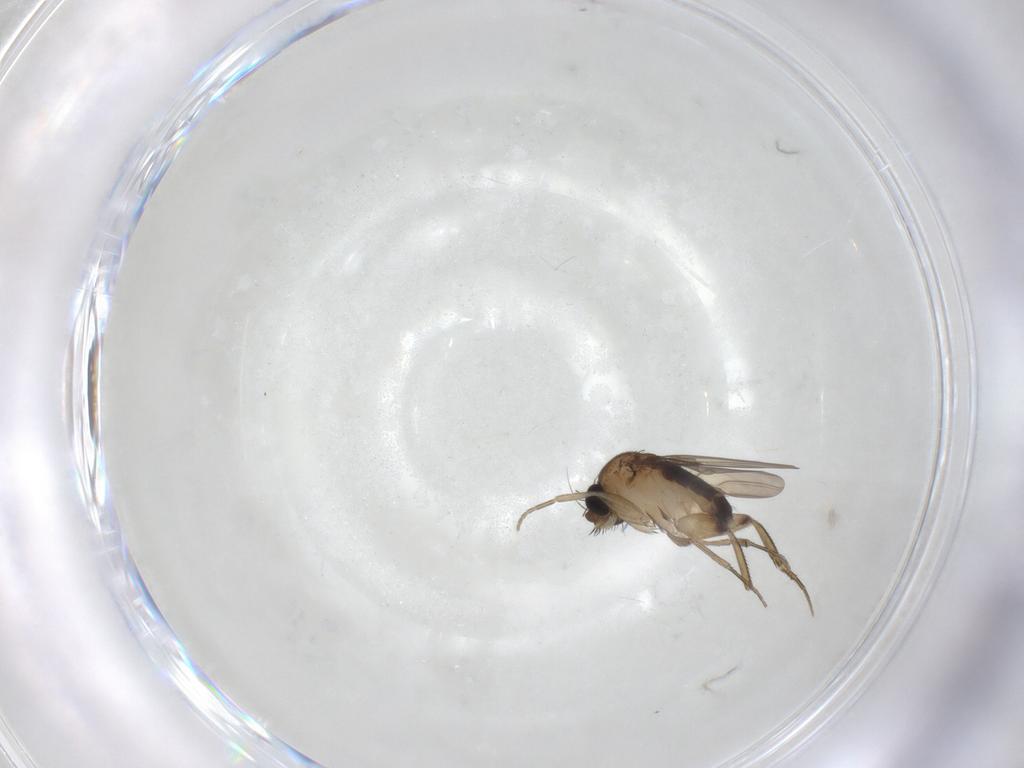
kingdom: Animalia
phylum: Arthropoda
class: Insecta
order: Diptera
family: Phoridae
